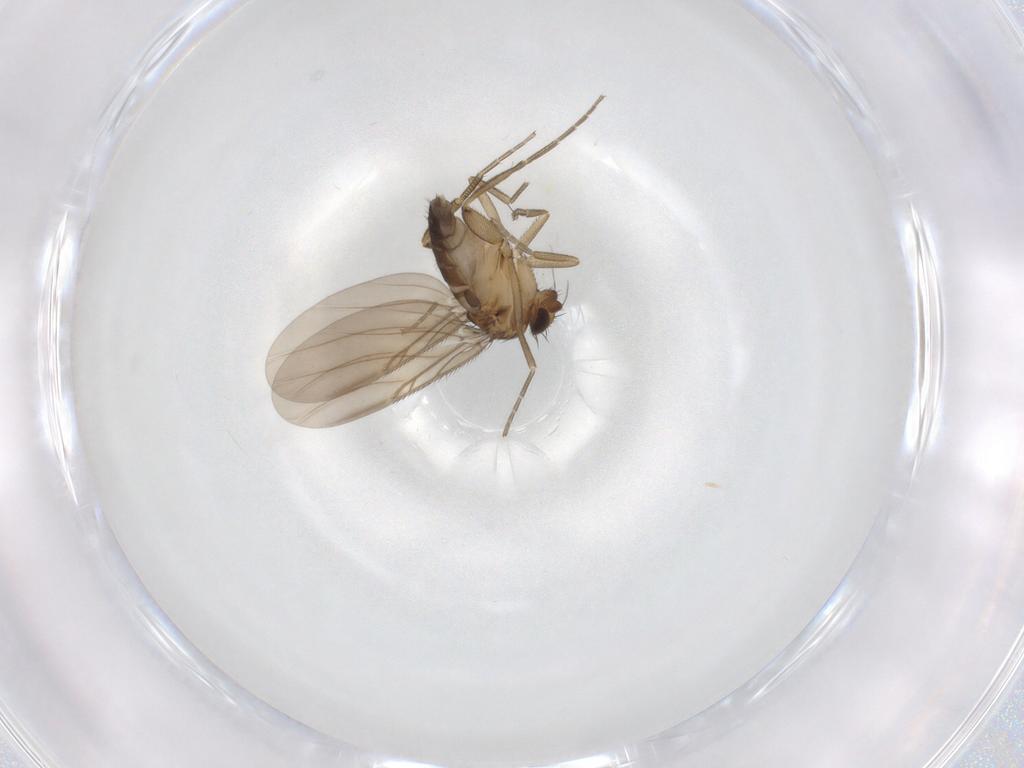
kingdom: Animalia
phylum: Arthropoda
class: Insecta
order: Diptera
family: Phoridae
